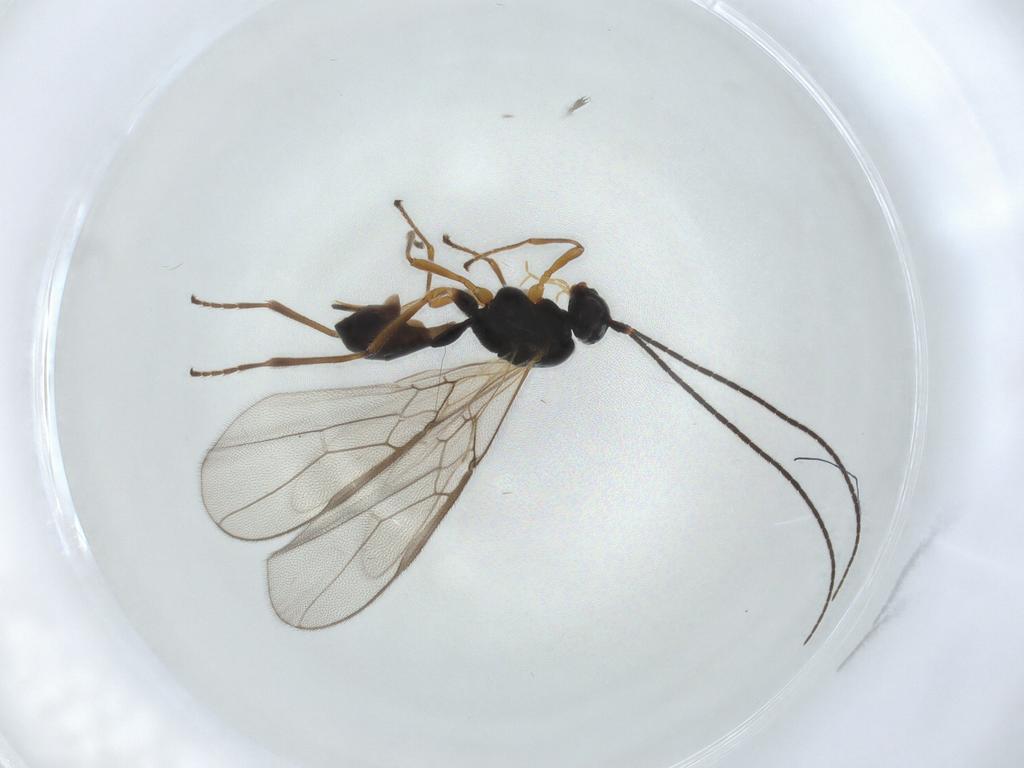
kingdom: Animalia
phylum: Arthropoda
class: Insecta
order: Hymenoptera
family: Braconidae
